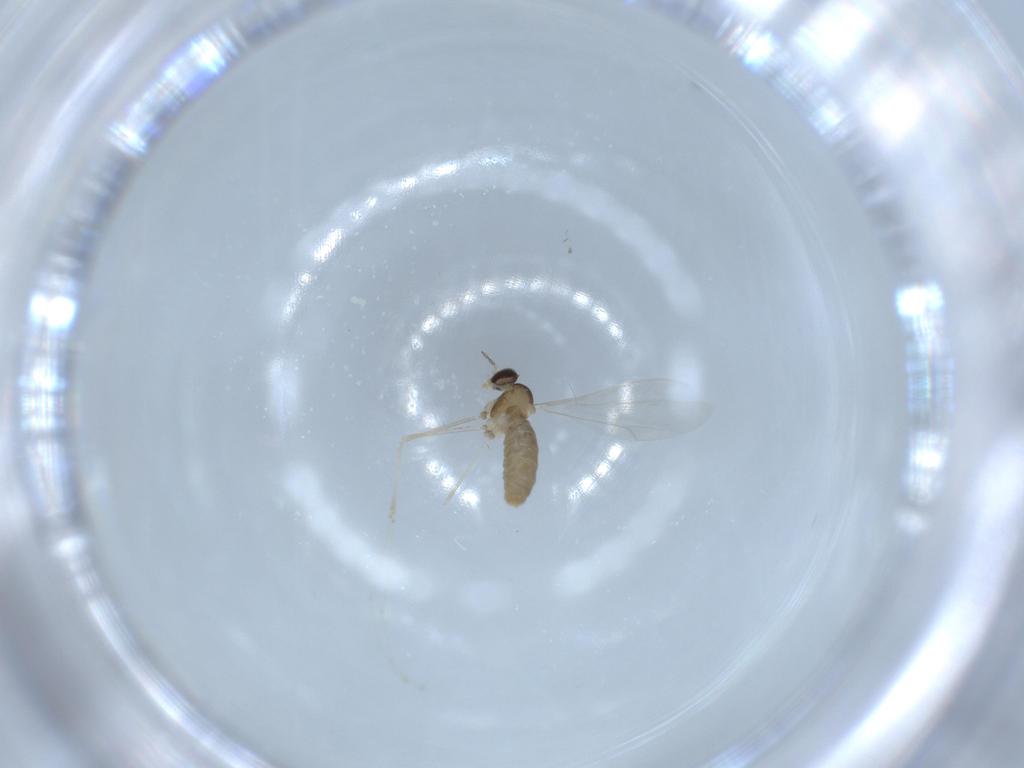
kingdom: Animalia
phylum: Arthropoda
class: Insecta
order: Diptera
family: Cecidomyiidae
